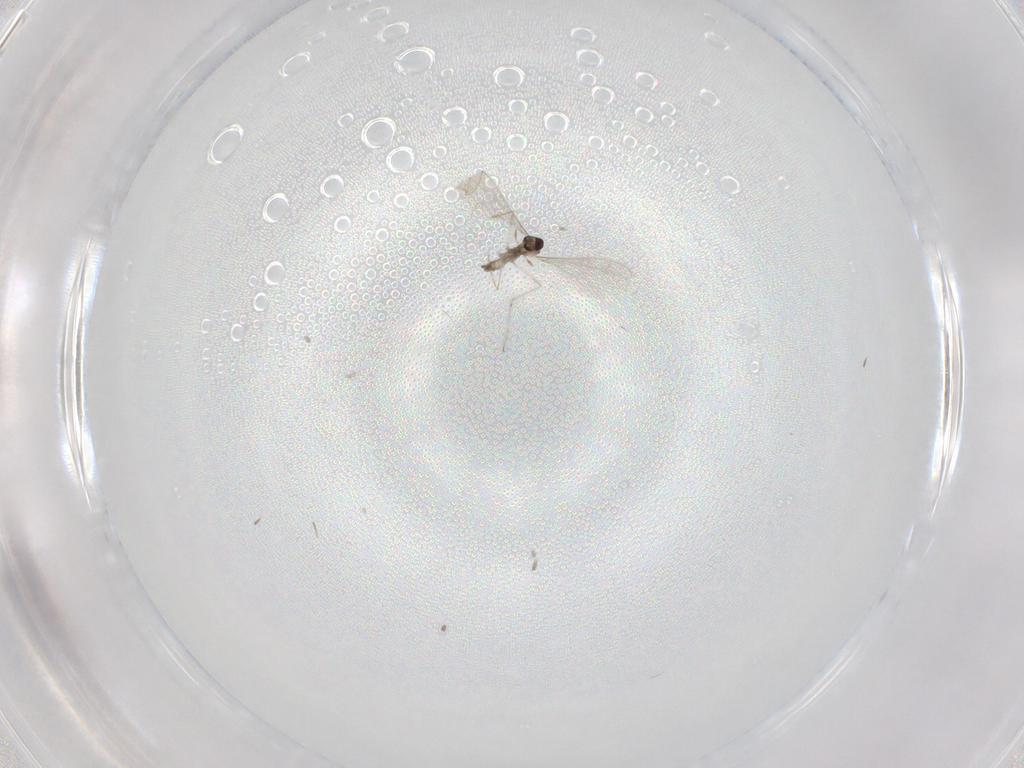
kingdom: Animalia
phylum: Arthropoda
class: Insecta
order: Diptera
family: Cecidomyiidae
